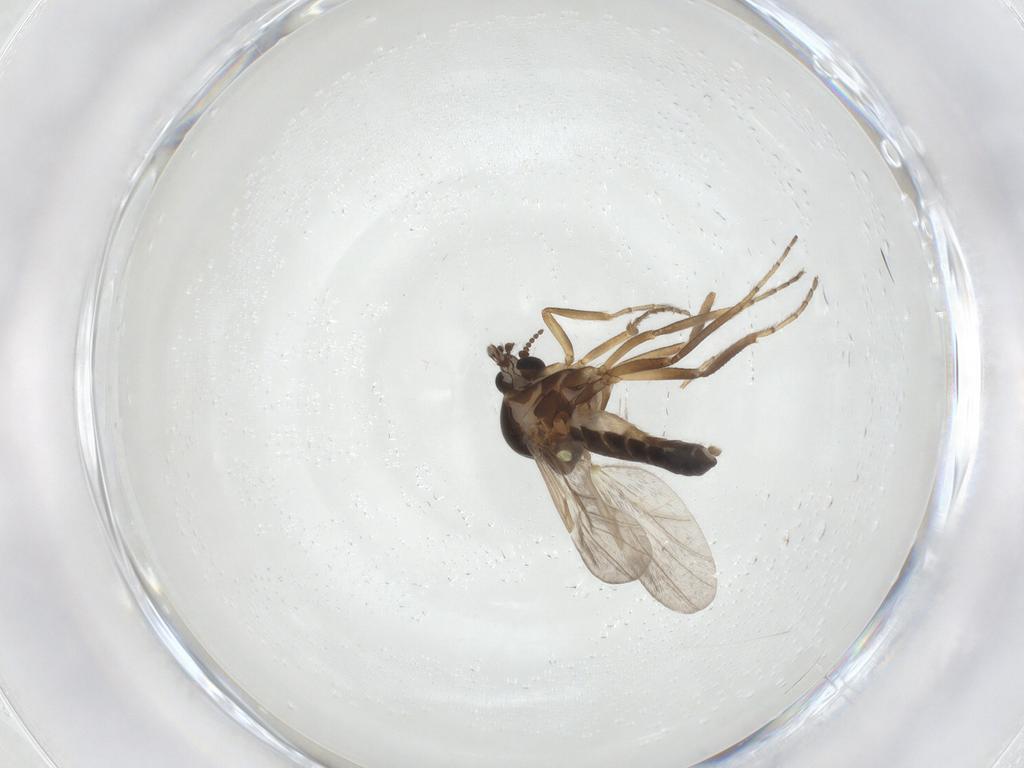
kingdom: Animalia
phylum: Arthropoda
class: Insecta
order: Diptera
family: Ceratopogonidae
